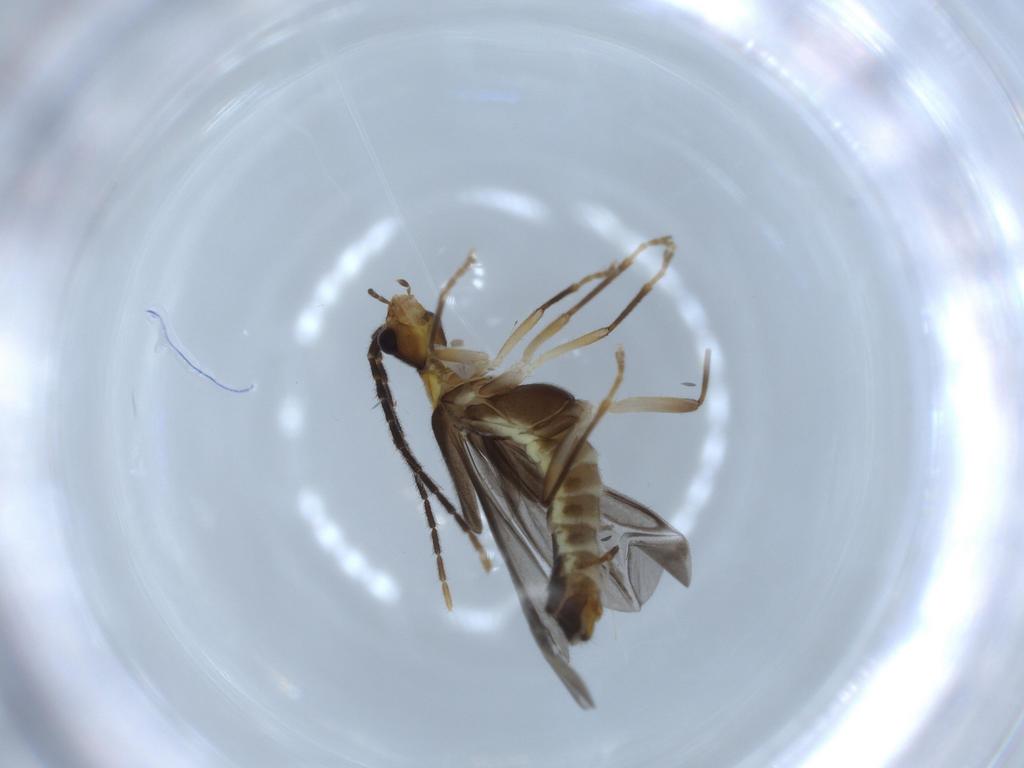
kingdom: Animalia
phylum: Arthropoda
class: Insecta
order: Coleoptera
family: Cantharidae
